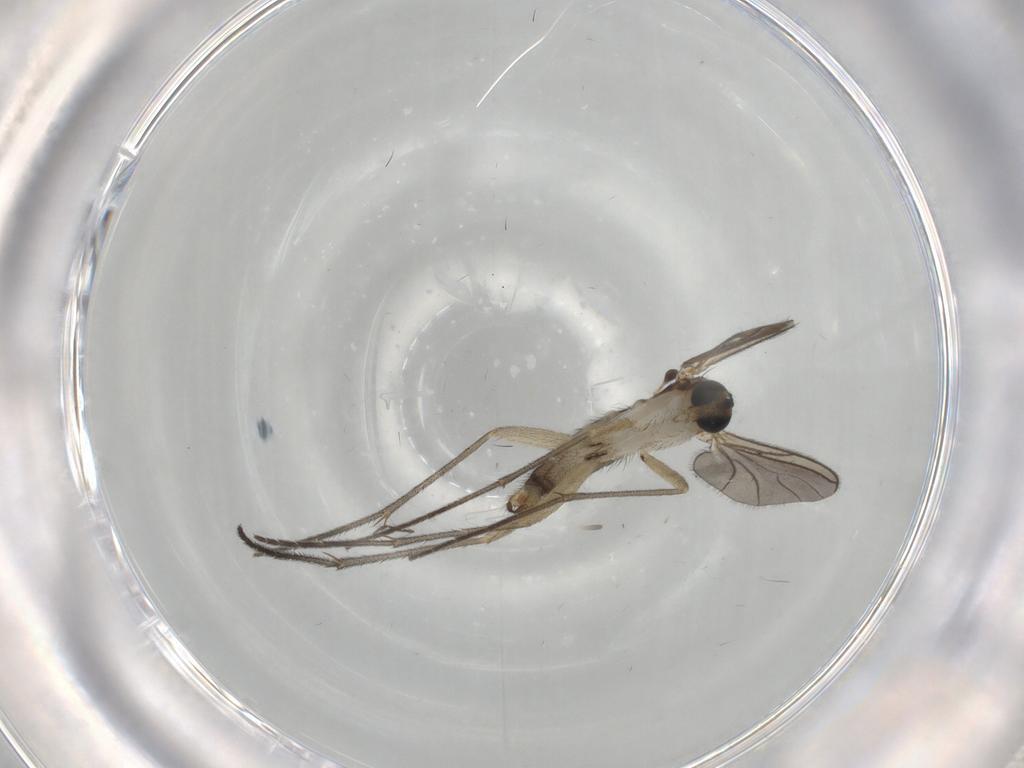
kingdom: Animalia
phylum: Arthropoda
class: Insecta
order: Diptera
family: Sciaridae
